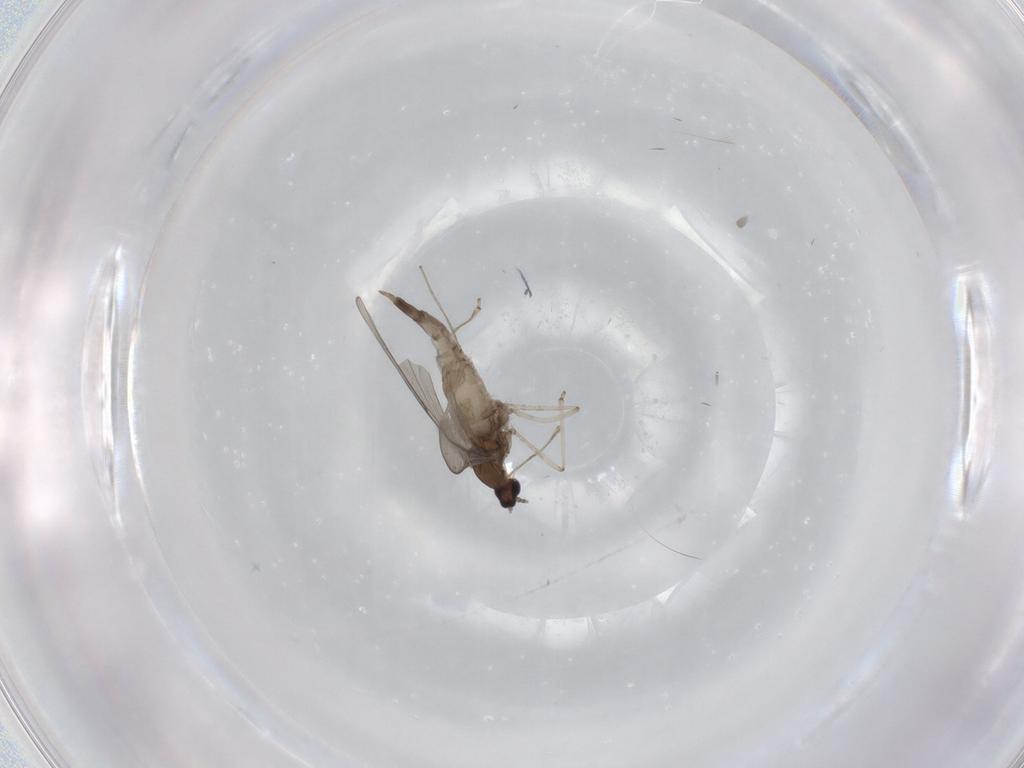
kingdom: Animalia
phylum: Arthropoda
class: Insecta
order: Diptera
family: Cecidomyiidae
